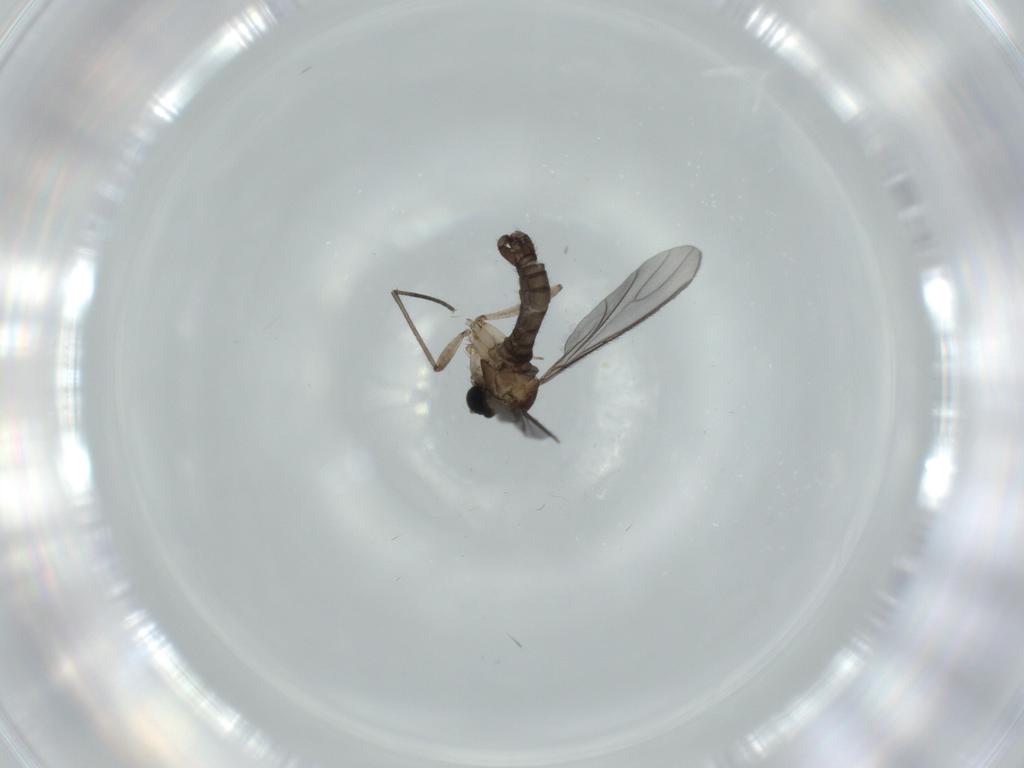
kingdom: Animalia
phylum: Arthropoda
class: Insecta
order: Diptera
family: Sciaridae
